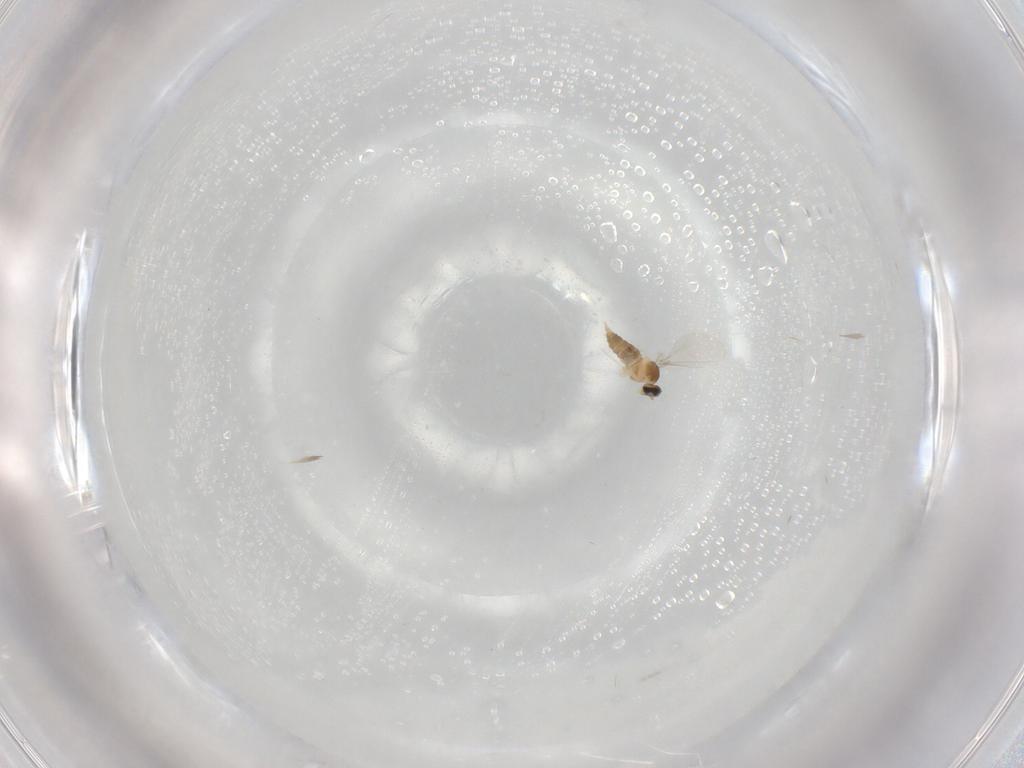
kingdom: Animalia
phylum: Arthropoda
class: Insecta
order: Diptera
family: Cecidomyiidae
